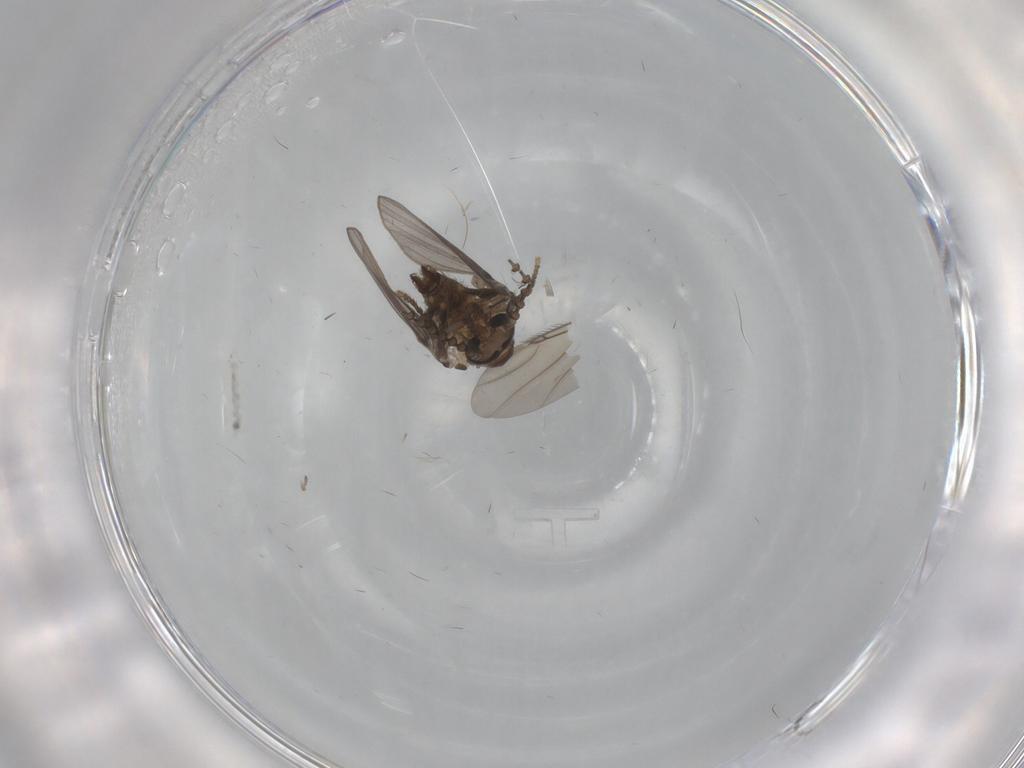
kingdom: Animalia
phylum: Arthropoda
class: Insecta
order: Diptera
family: Psychodidae
